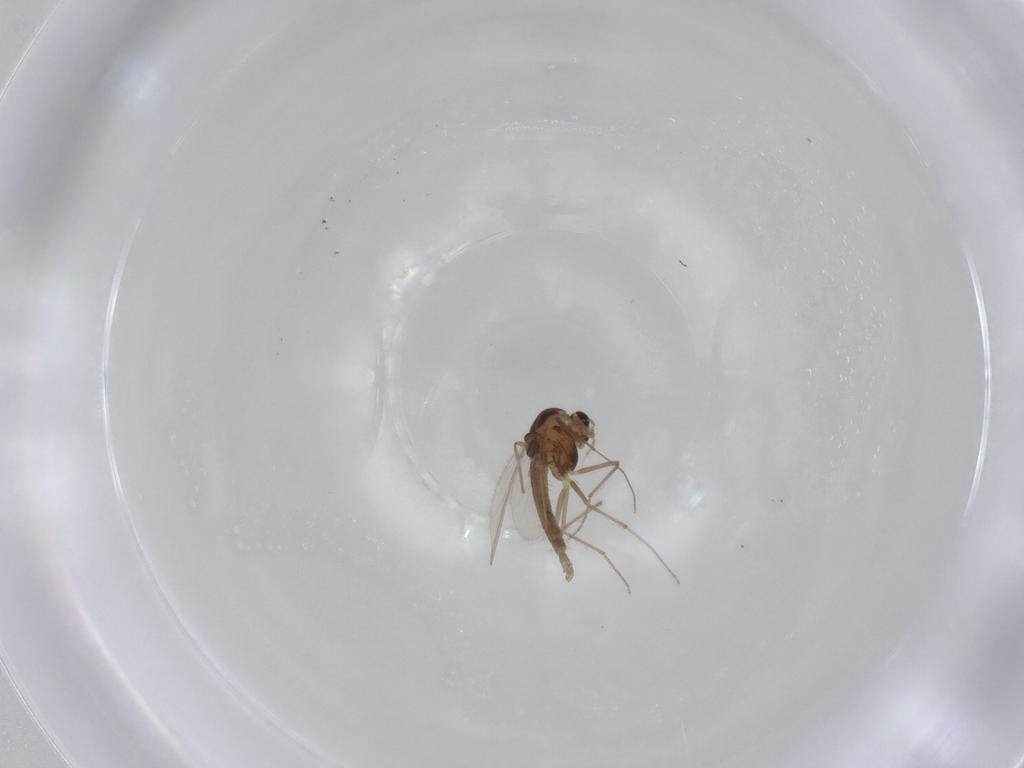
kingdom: Animalia
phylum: Arthropoda
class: Insecta
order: Diptera
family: Chironomidae
